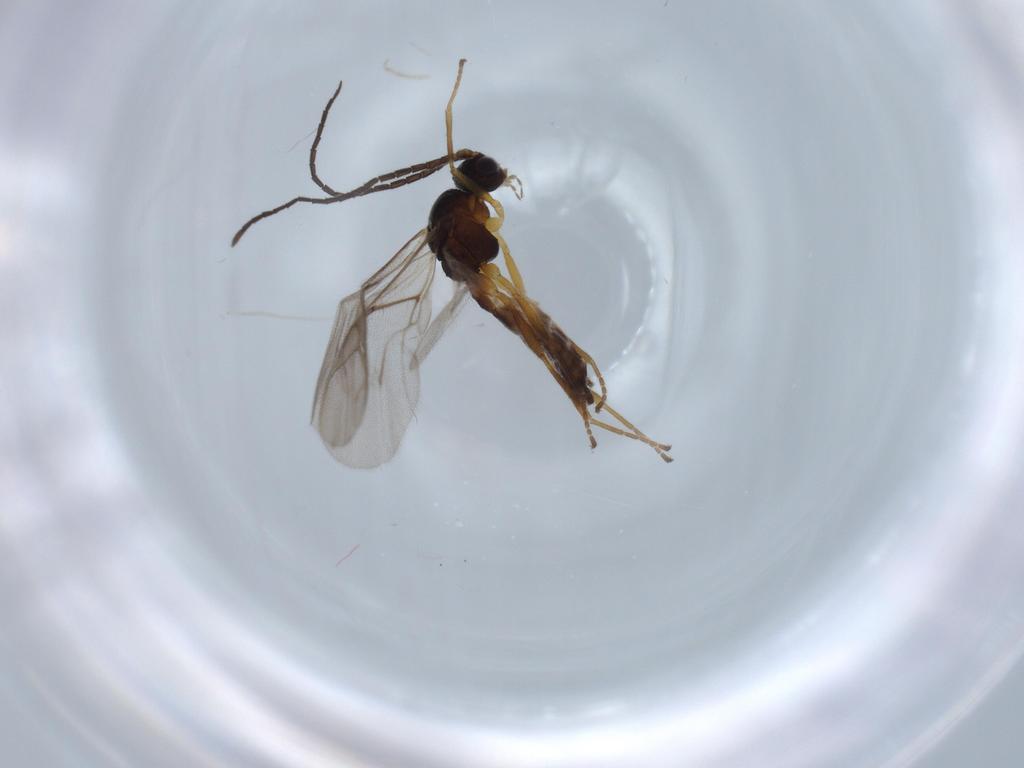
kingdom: Animalia
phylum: Arthropoda
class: Insecta
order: Hymenoptera
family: Braconidae
